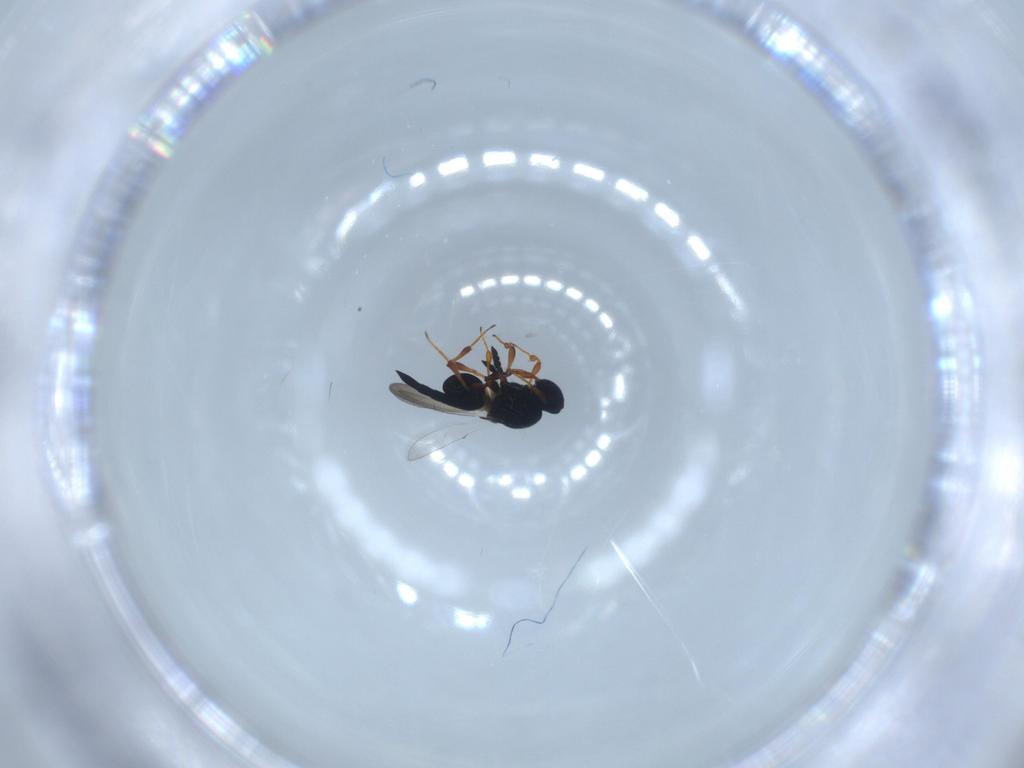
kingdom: Animalia
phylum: Arthropoda
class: Insecta
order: Hymenoptera
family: Platygastridae
